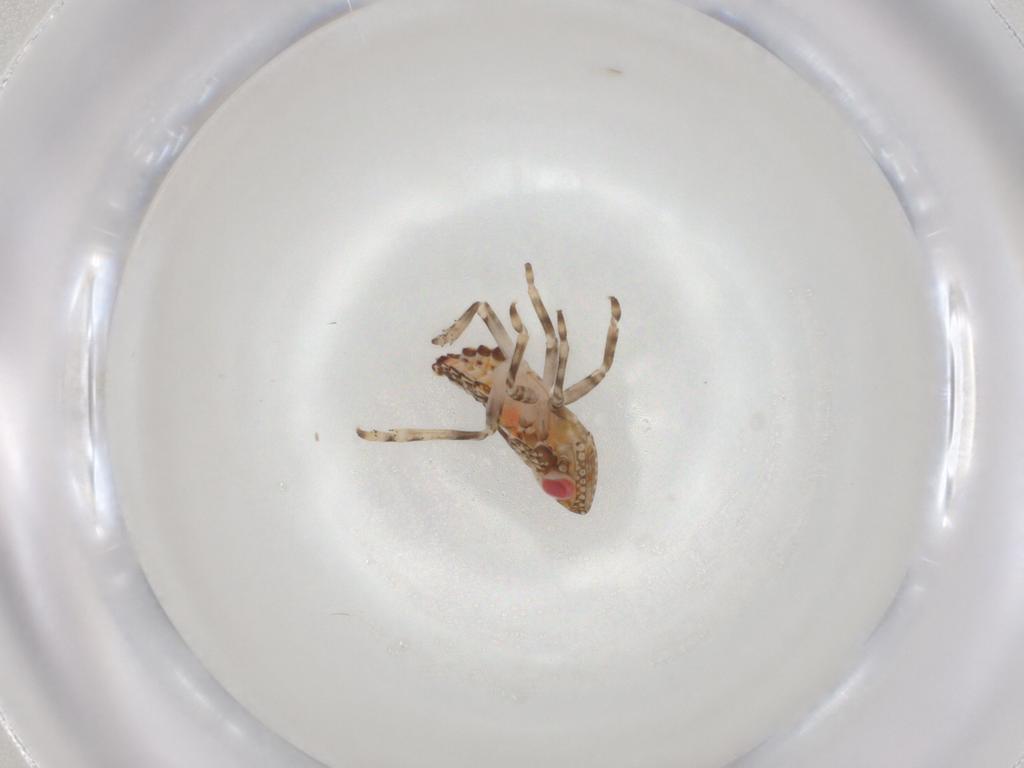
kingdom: Animalia
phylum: Arthropoda
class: Insecta
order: Hemiptera
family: Tropiduchidae
